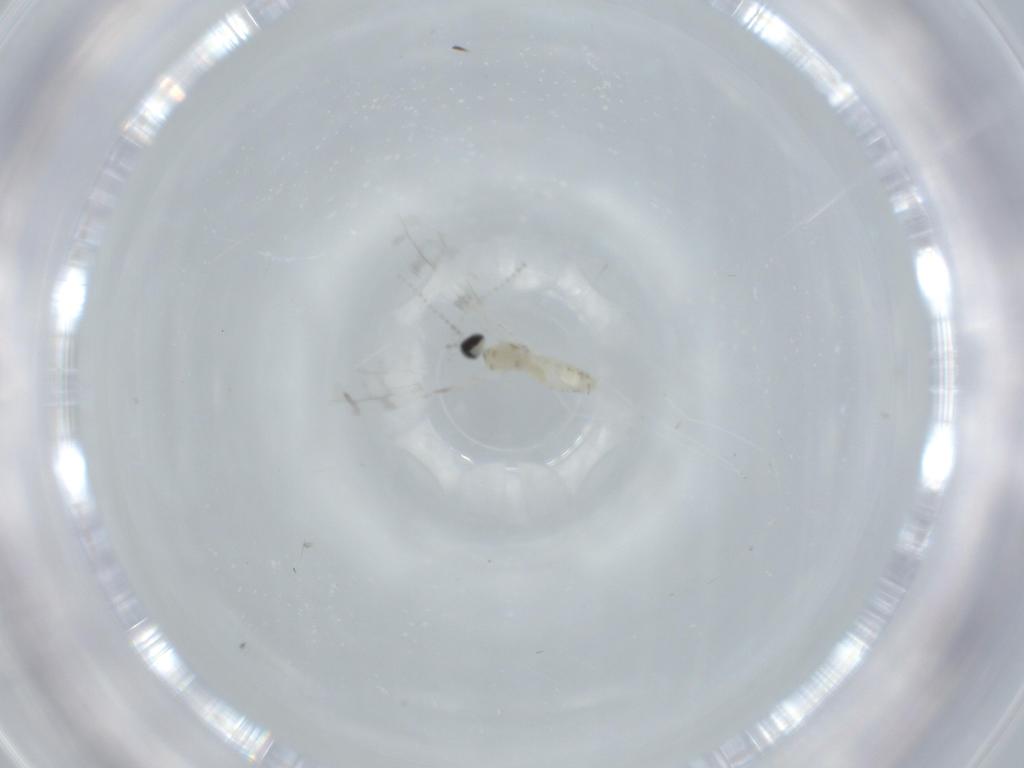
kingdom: Animalia
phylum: Arthropoda
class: Insecta
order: Diptera
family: Cecidomyiidae
